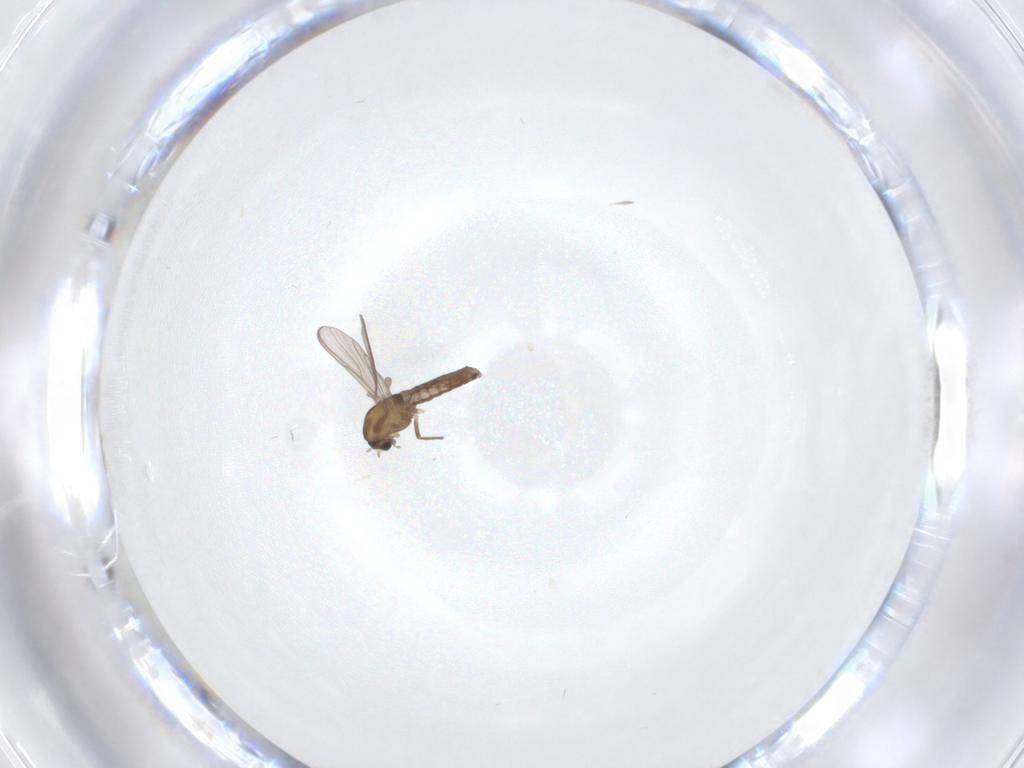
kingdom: Animalia
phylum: Arthropoda
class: Insecta
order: Diptera
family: Chironomidae
